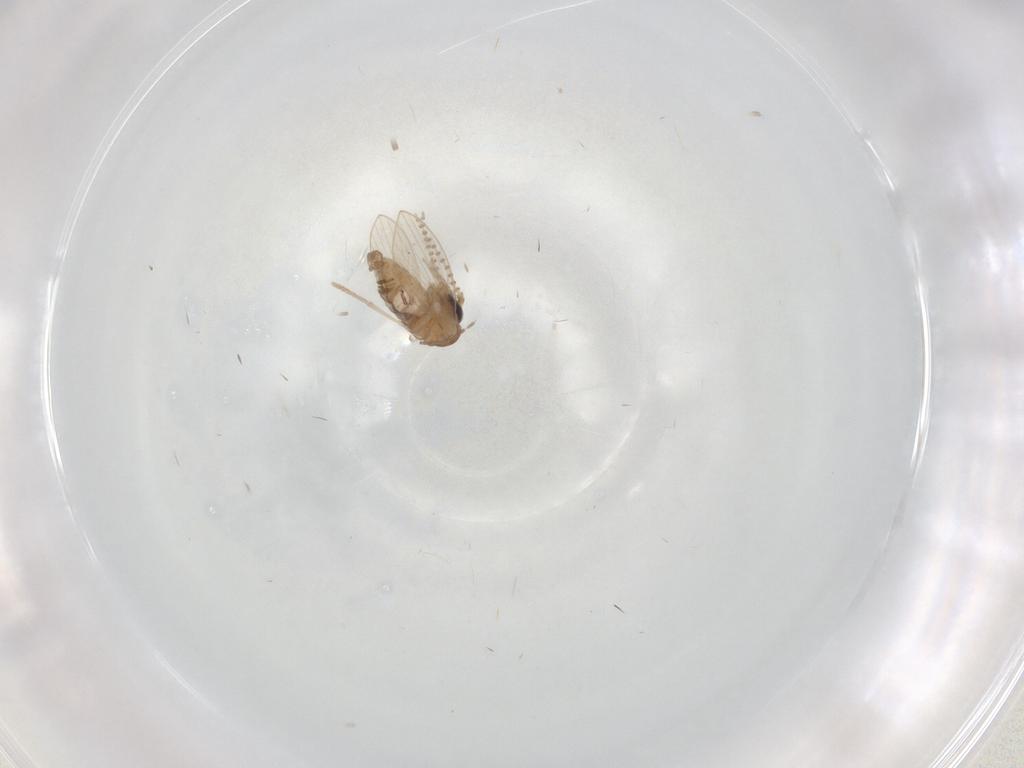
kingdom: Animalia
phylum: Arthropoda
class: Insecta
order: Diptera
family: Psychodidae
